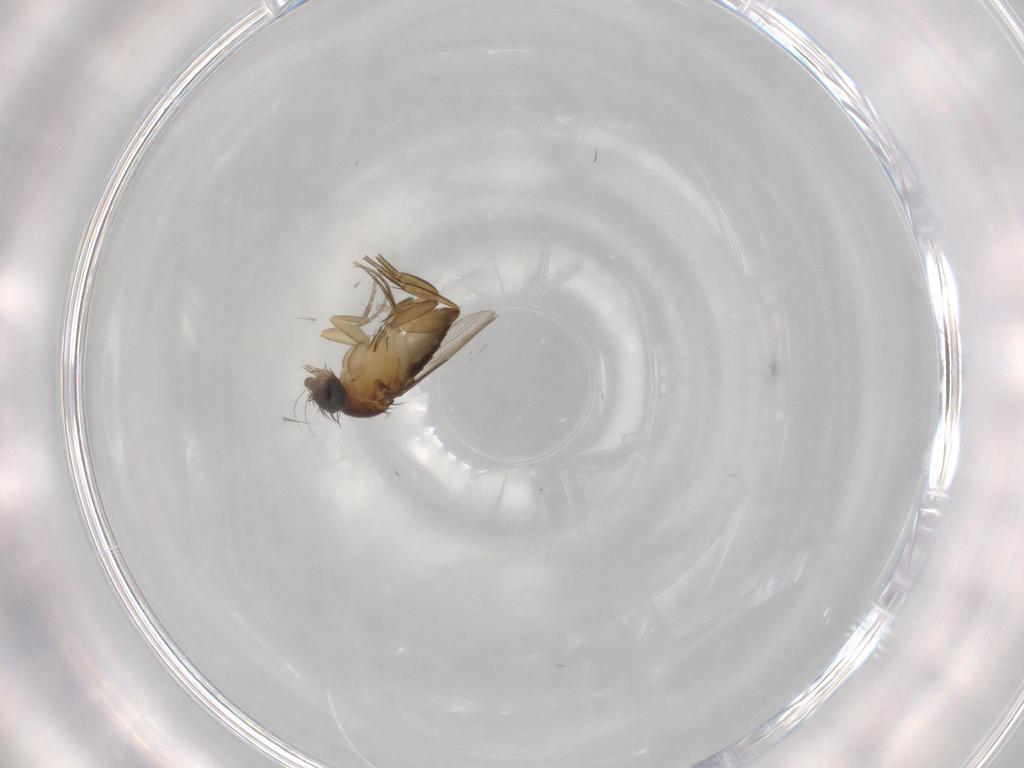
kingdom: Animalia
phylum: Arthropoda
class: Insecta
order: Diptera
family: Phoridae
